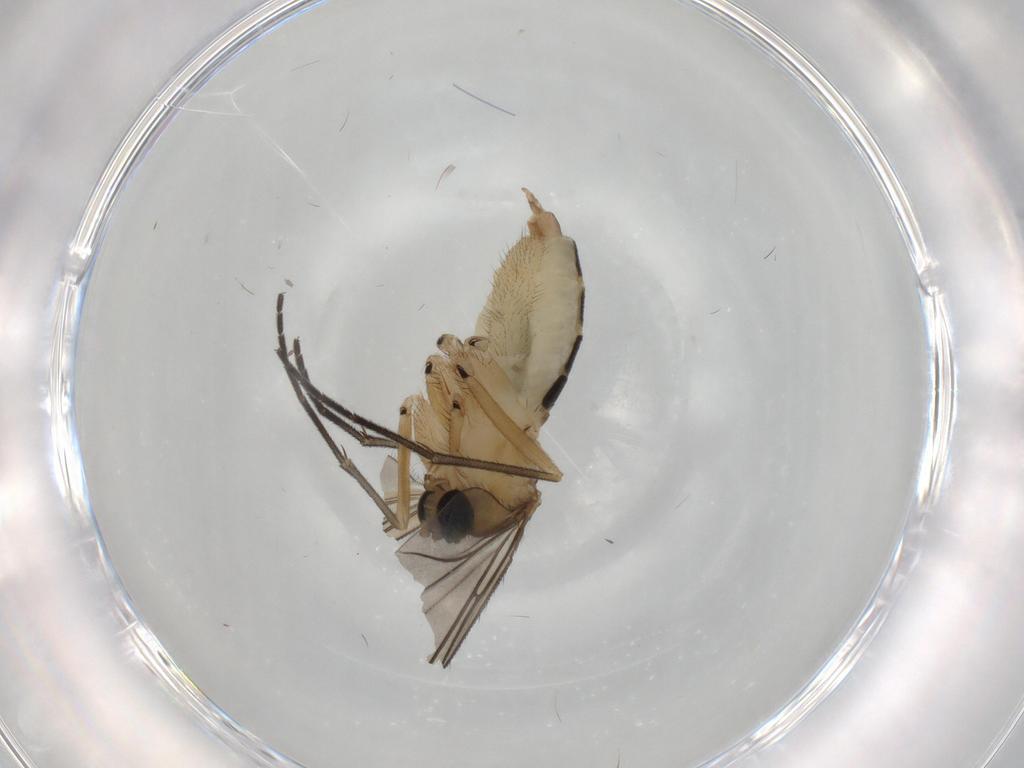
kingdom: Animalia
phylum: Arthropoda
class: Insecta
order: Diptera
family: Sciaridae
